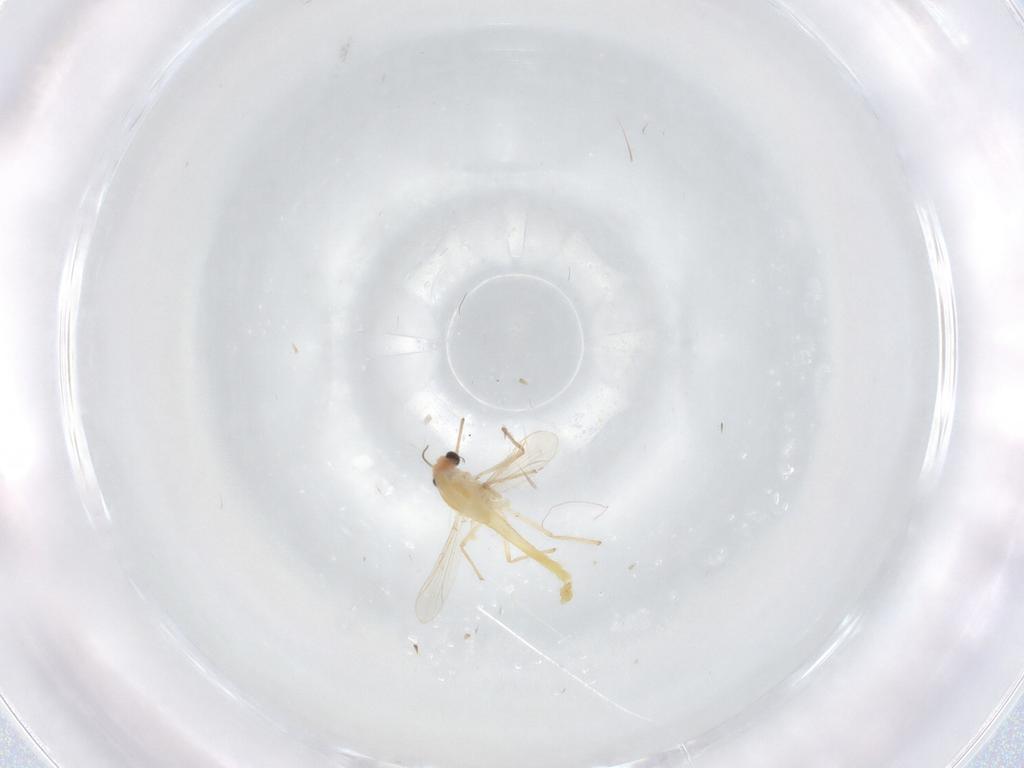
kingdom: Animalia
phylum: Arthropoda
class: Insecta
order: Diptera
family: Chironomidae
